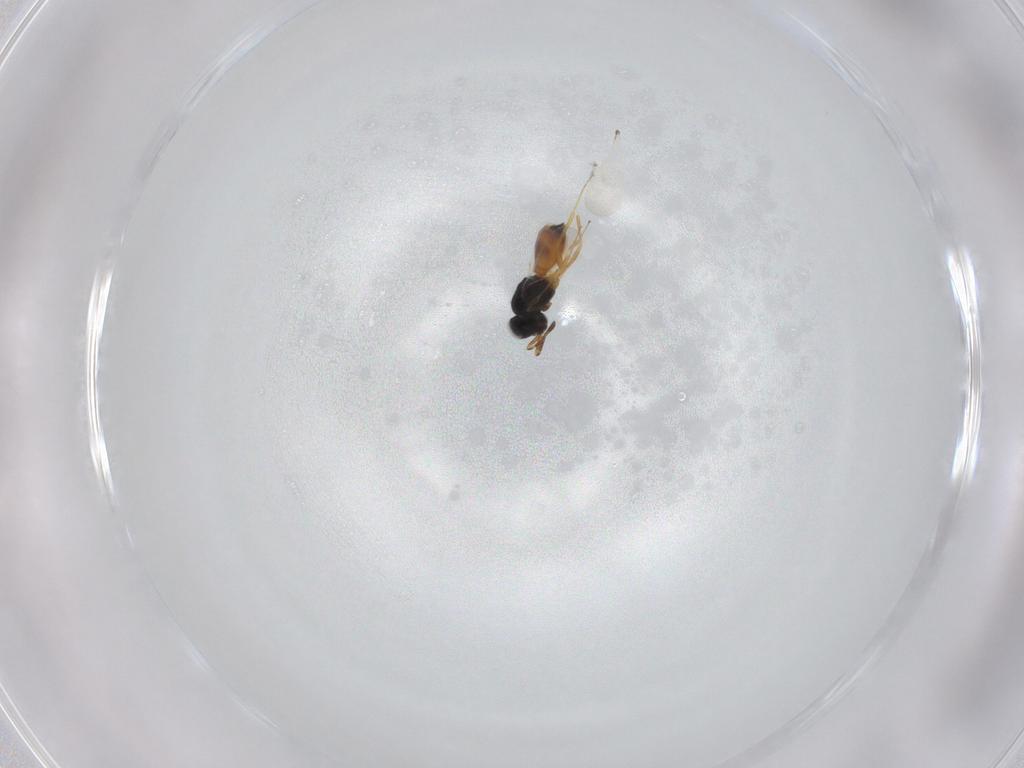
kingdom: Animalia
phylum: Arthropoda
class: Insecta
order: Hymenoptera
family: Scelionidae
